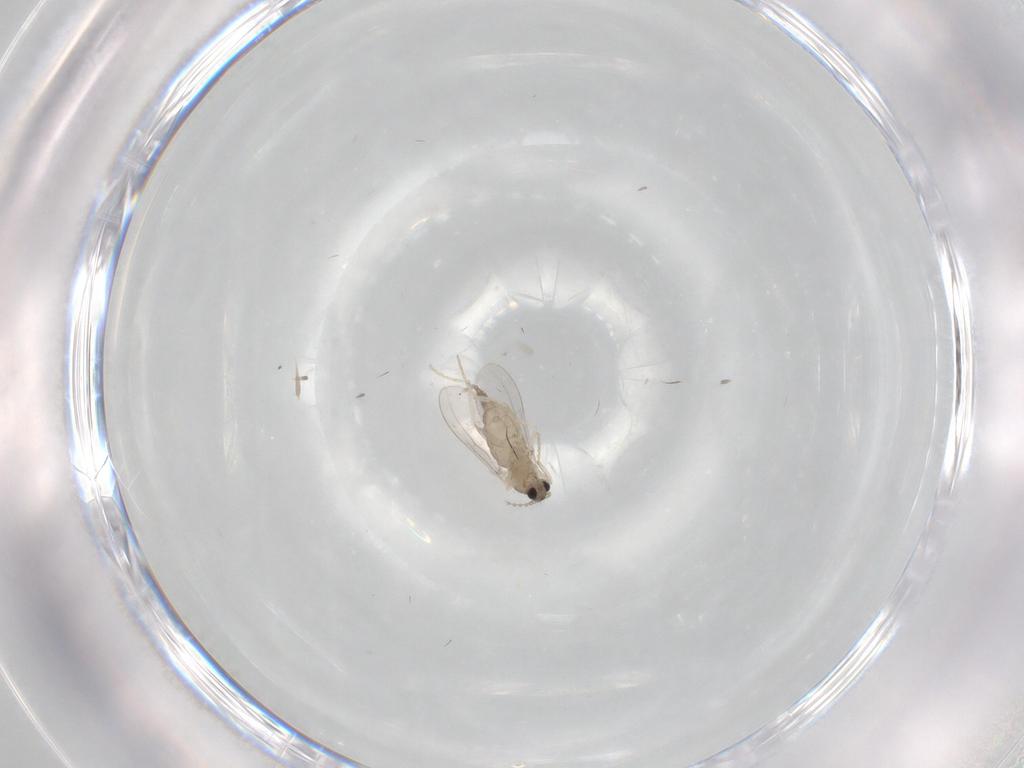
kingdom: Animalia
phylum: Arthropoda
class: Insecta
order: Diptera
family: Cecidomyiidae
